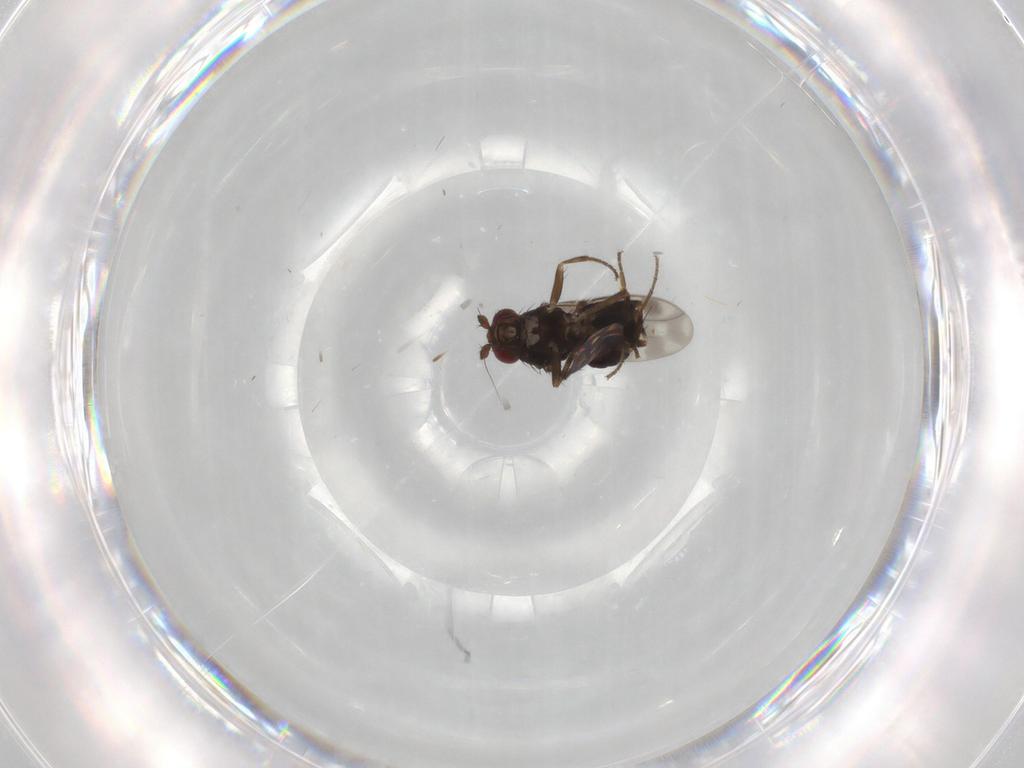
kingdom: Animalia
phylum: Arthropoda
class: Insecta
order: Diptera
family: Sphaeroceridae
